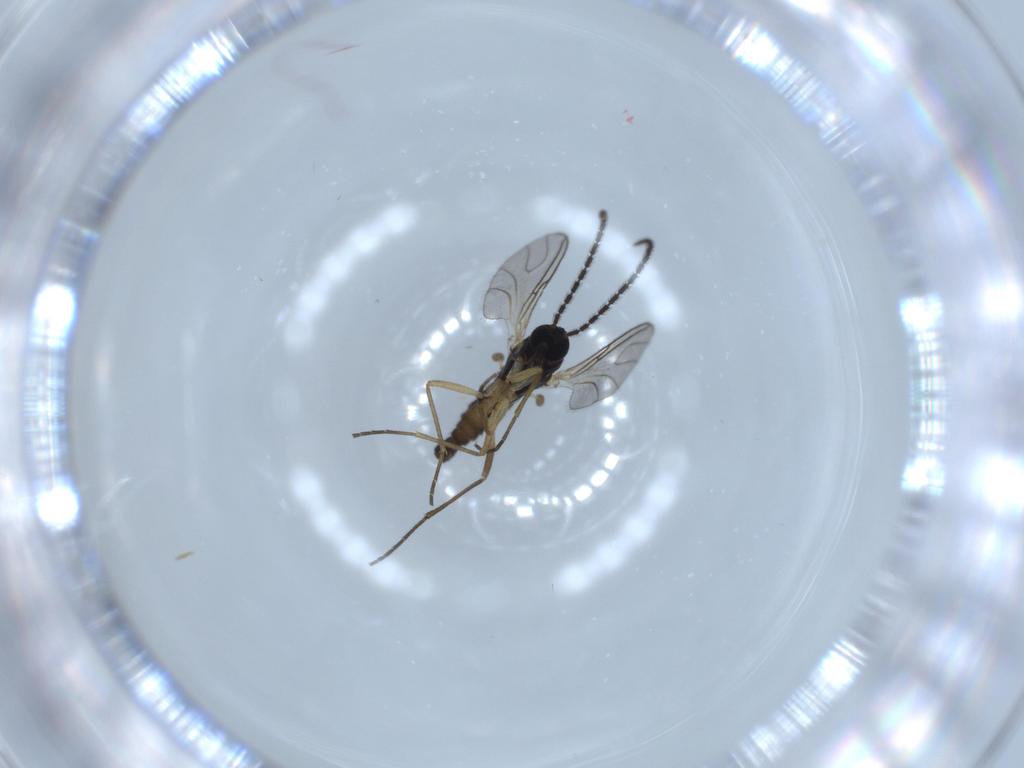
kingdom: Animalia
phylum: Arthropoda
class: Insecta
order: Diptera
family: Sciaridae
